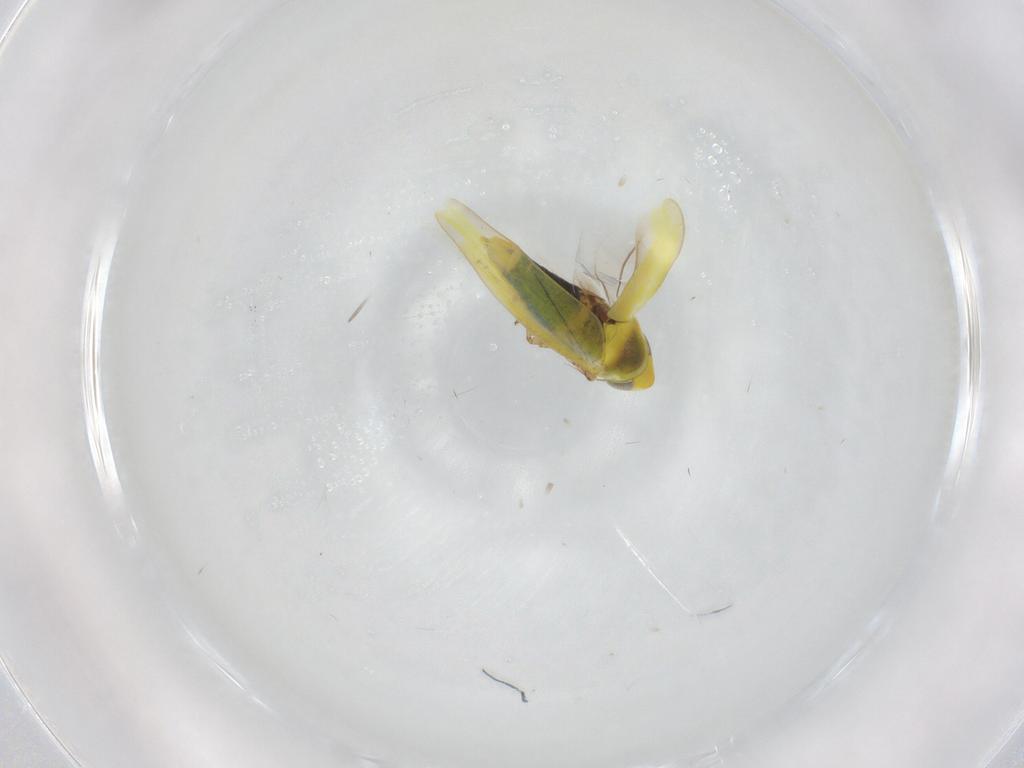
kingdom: Animalia
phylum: Arthropoda
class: Insecta
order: Hemiptera
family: Cicadellidae
